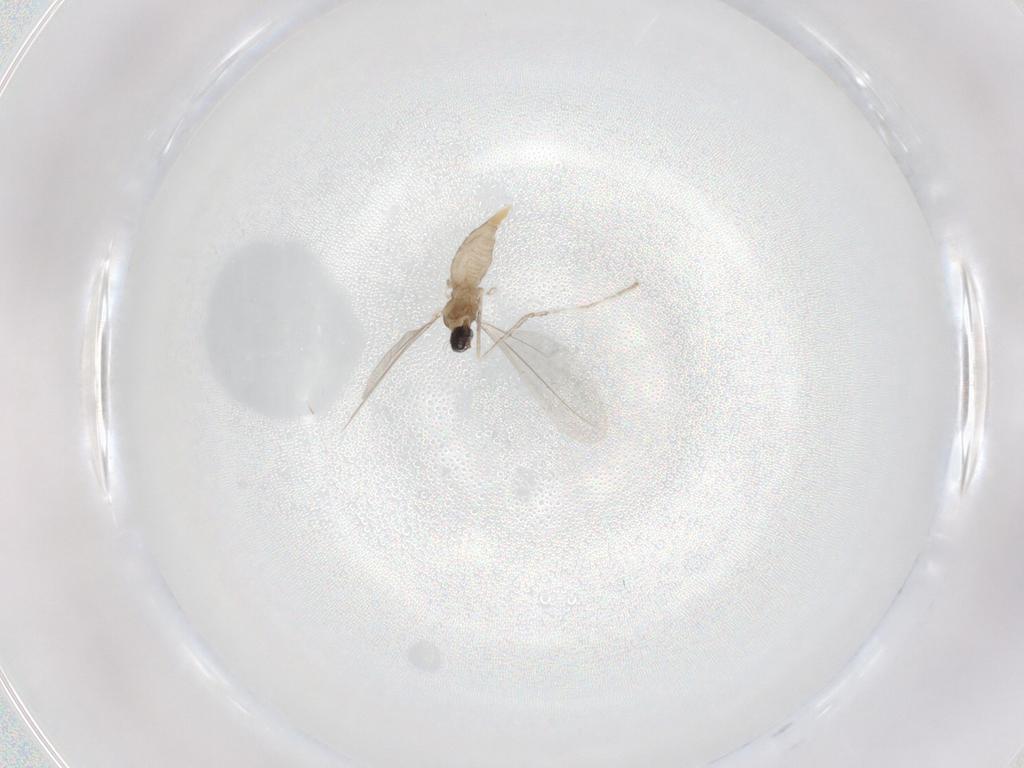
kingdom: Animalia
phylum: Arthropoda
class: Insecta
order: Diptera
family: Cecidomyiidae
